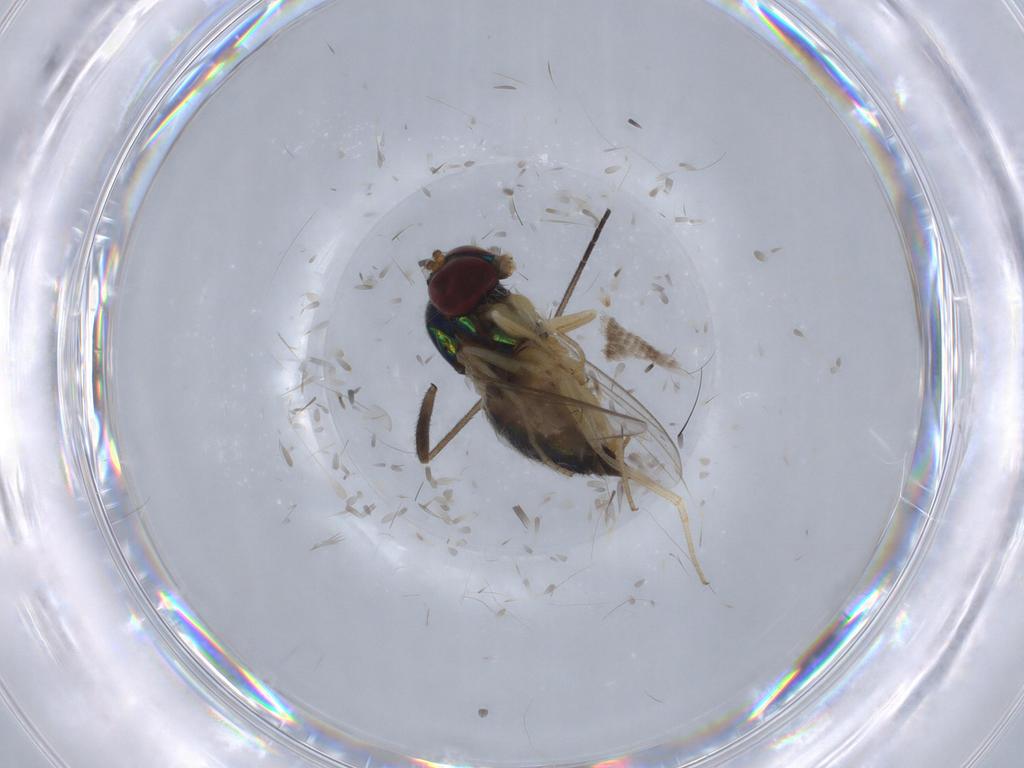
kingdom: Animalia
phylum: Arthropoda
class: Insecta
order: Diptera
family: Dolichopodidae
